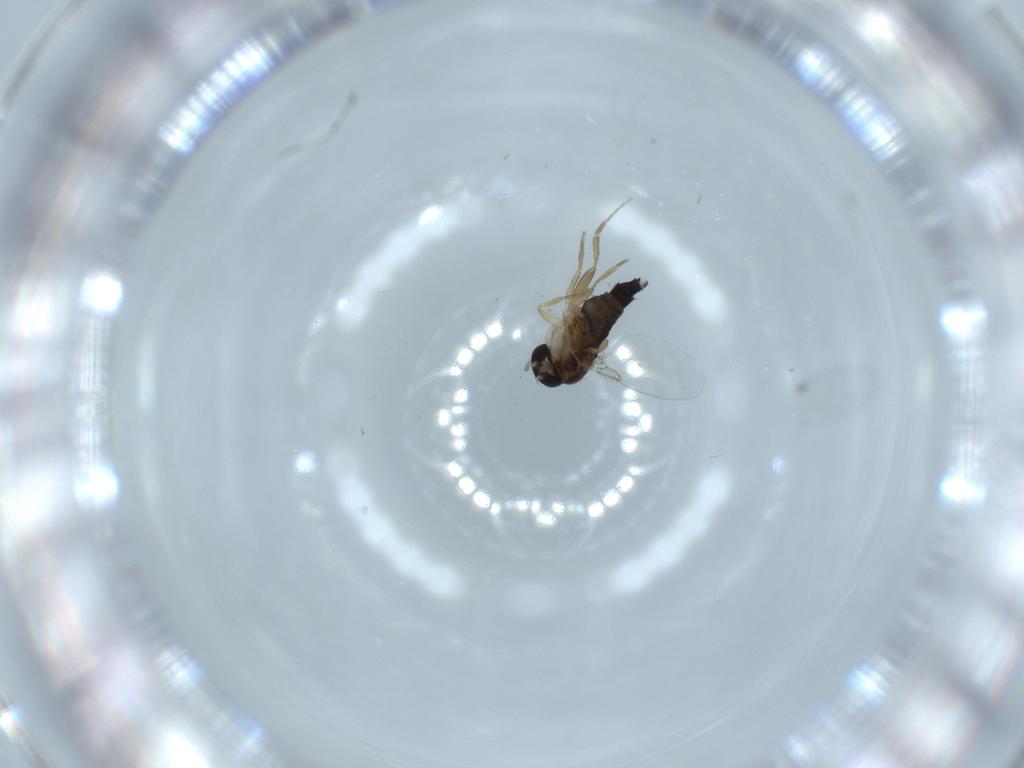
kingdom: Animalia
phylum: Arthropoda
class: Insecta
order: Diptera
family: Phoridae
